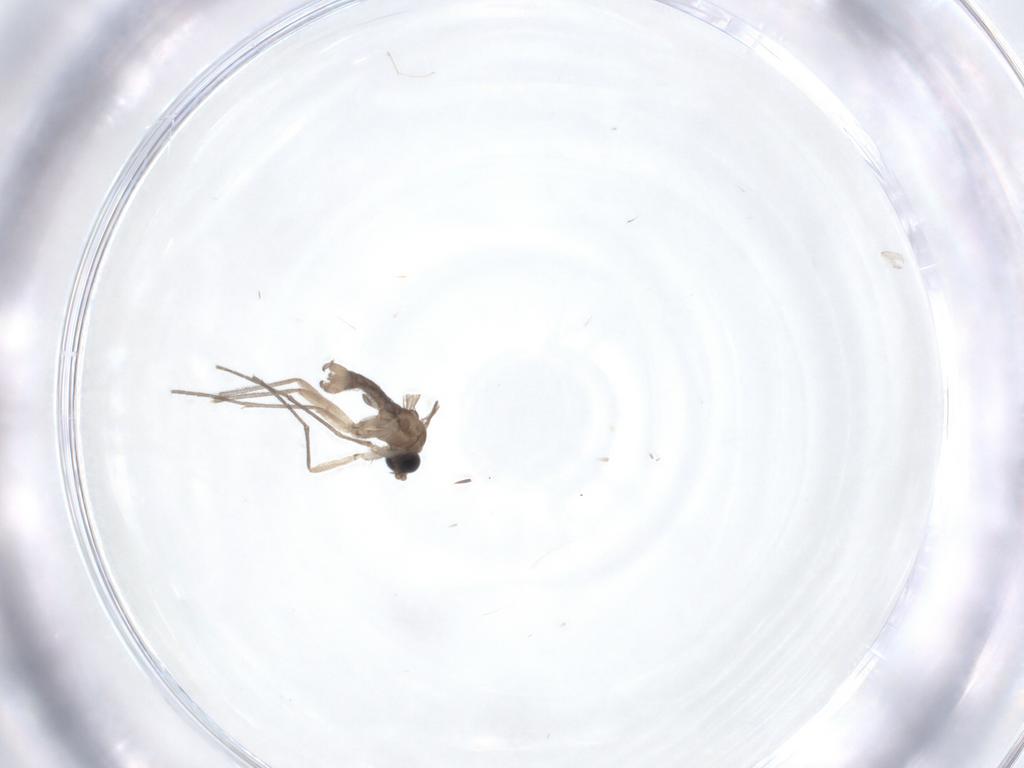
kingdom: Animalia
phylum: Arthropoda
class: Insecta
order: Diptera
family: Sciaridae
